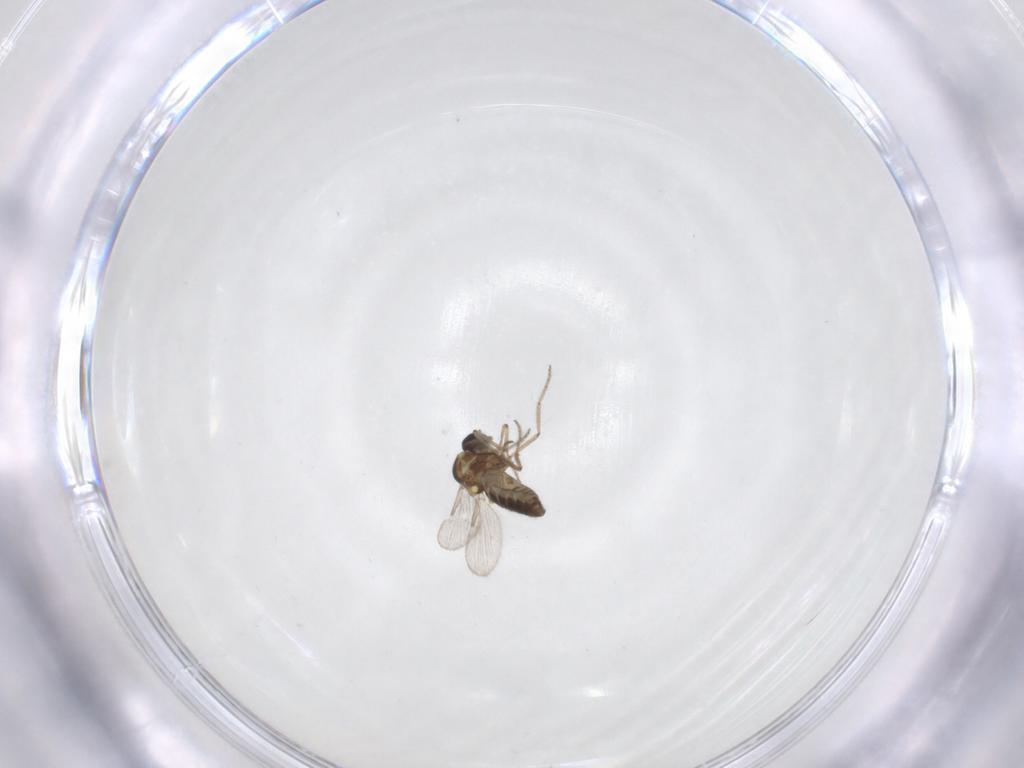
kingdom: Animalia
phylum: Arthropoda
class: Insecta
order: Diptera
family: Ceratopogonidae
